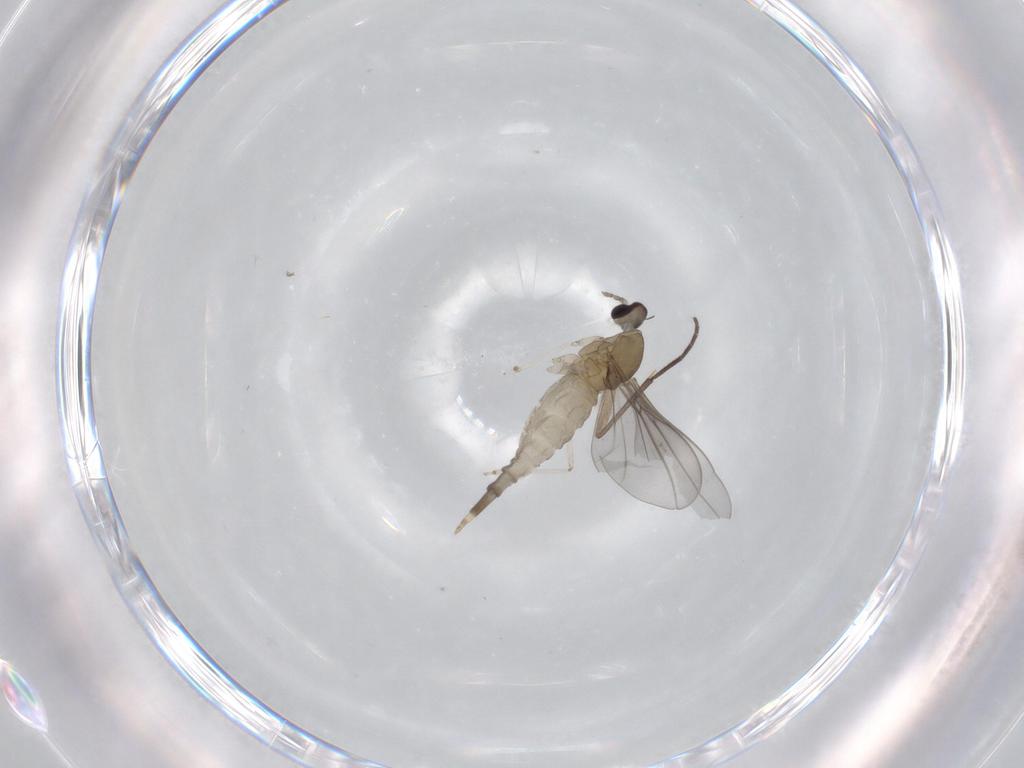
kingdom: Animalia
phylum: Arthropoda
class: Insecta
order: Diptera
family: Cecidomyiidae
